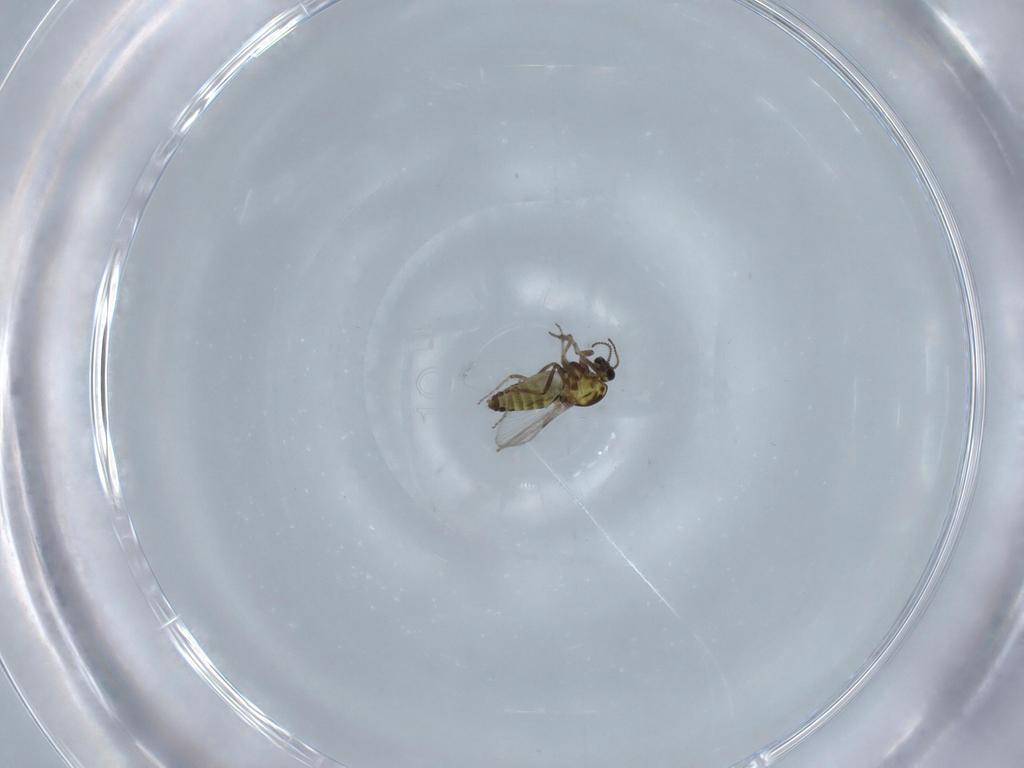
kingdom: Animalia
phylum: Arthropoda
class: Insecta
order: Diptera
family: Ceratopogonidae
